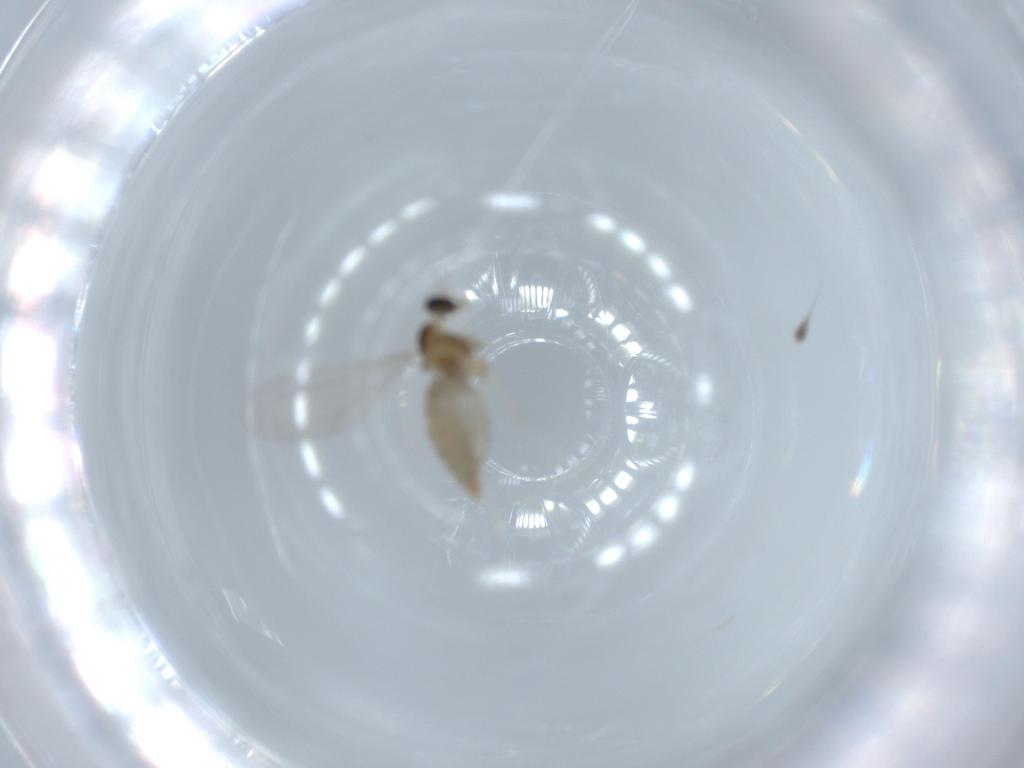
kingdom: Animalia
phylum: Arthropoda
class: Insecta
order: Diptera
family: Cecidomyiidae
